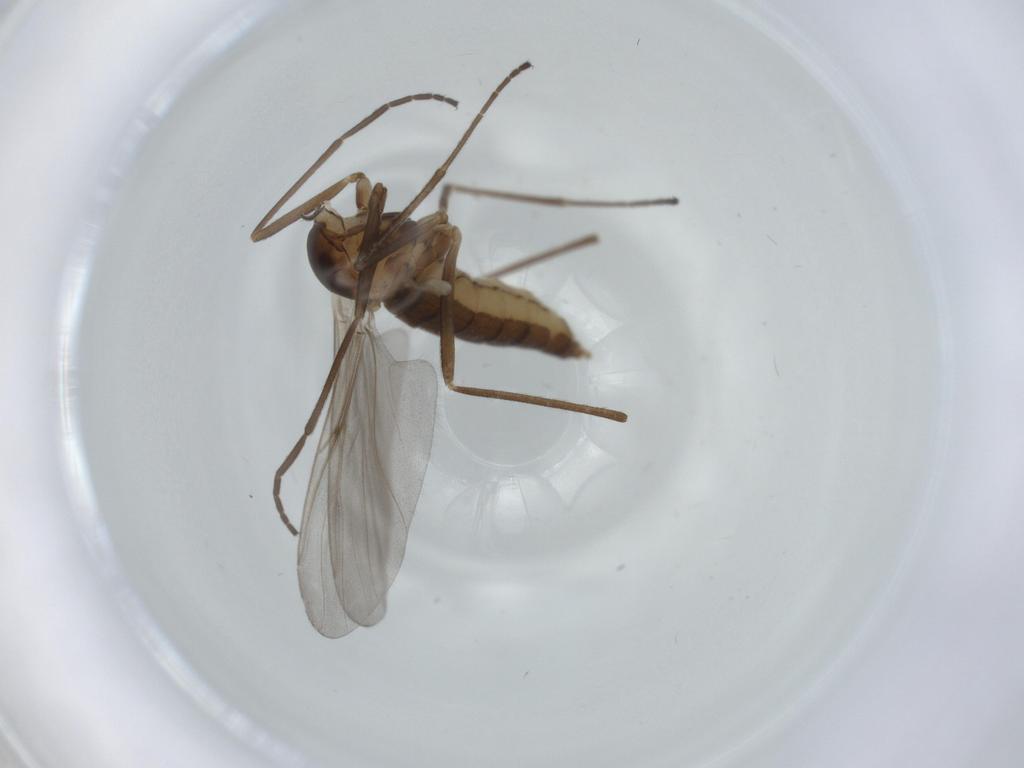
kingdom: Animalia
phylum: Arthropoda
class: Insecta
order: Diptera
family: Cecidomyiidae
